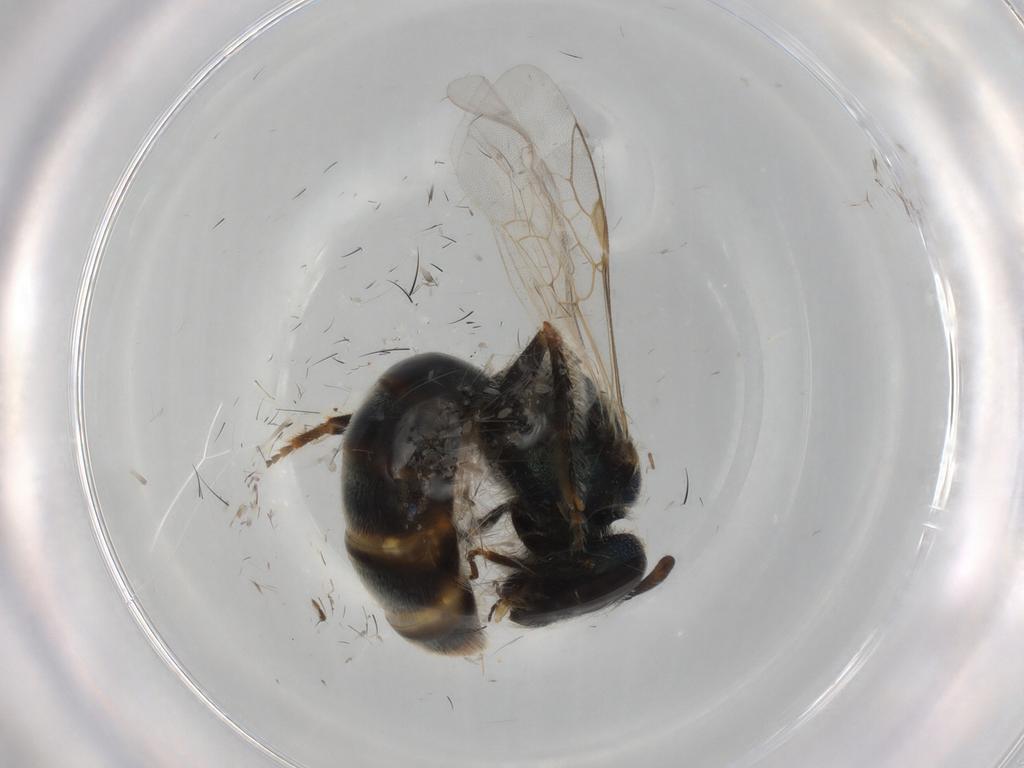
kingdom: Animalia
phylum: Arthropoda
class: Insecta
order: Hymenoptera
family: Halictidae
